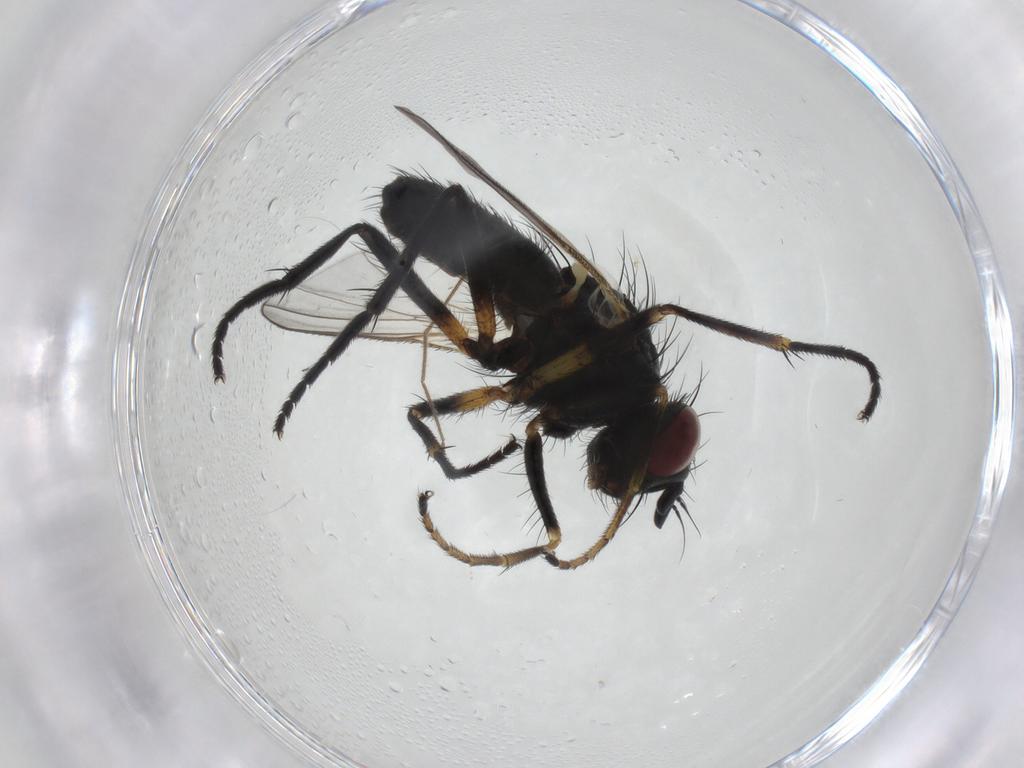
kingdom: Animalia
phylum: Arthropoda
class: Insecta
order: Diptera
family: Muscidae
